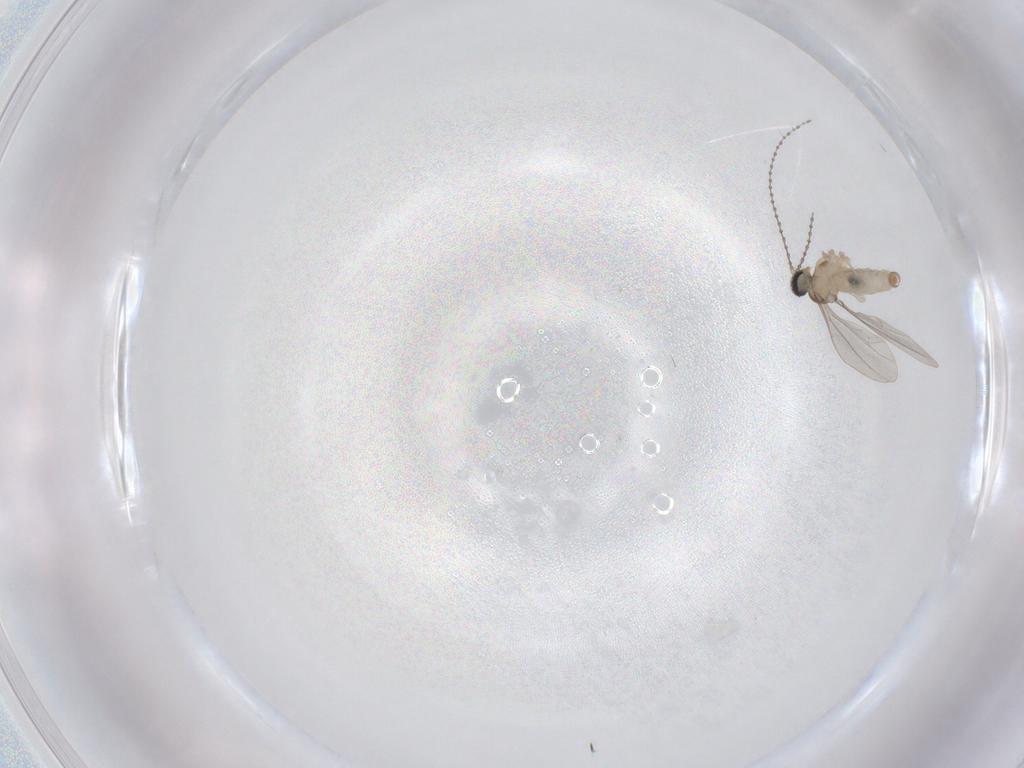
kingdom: Animalia
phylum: Arthropoda
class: Insecta
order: Diptera
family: Cecidomyiidae
